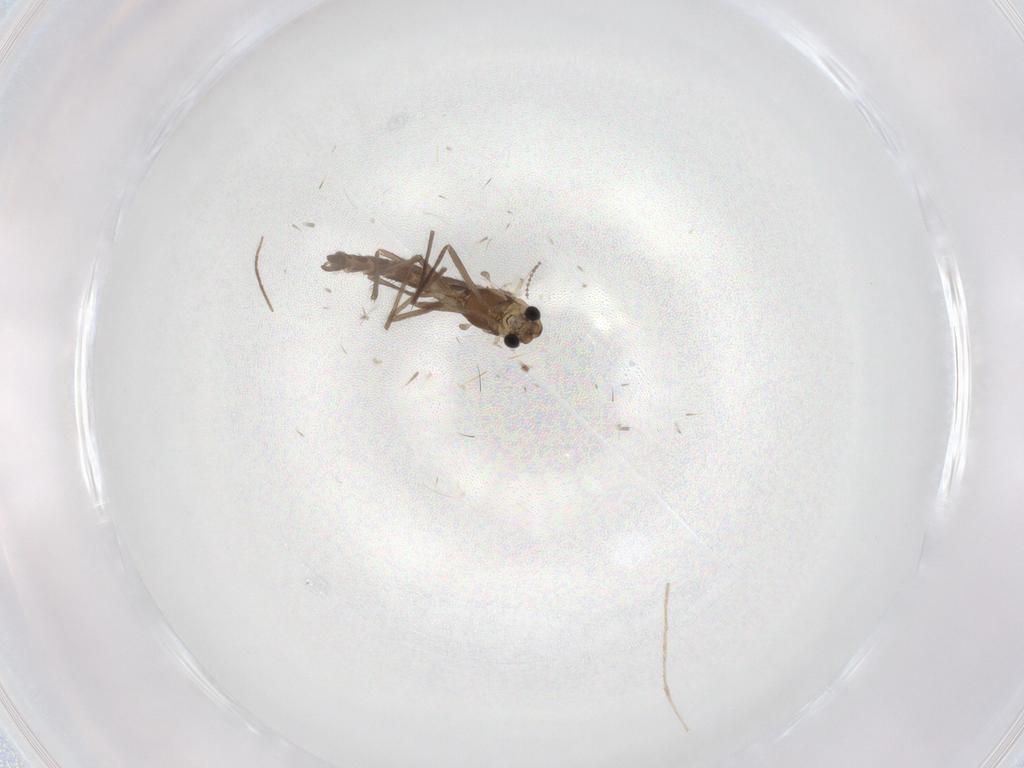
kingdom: Animalia
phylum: Arthropoda
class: Insecta
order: Diptera
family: Chironomidae
